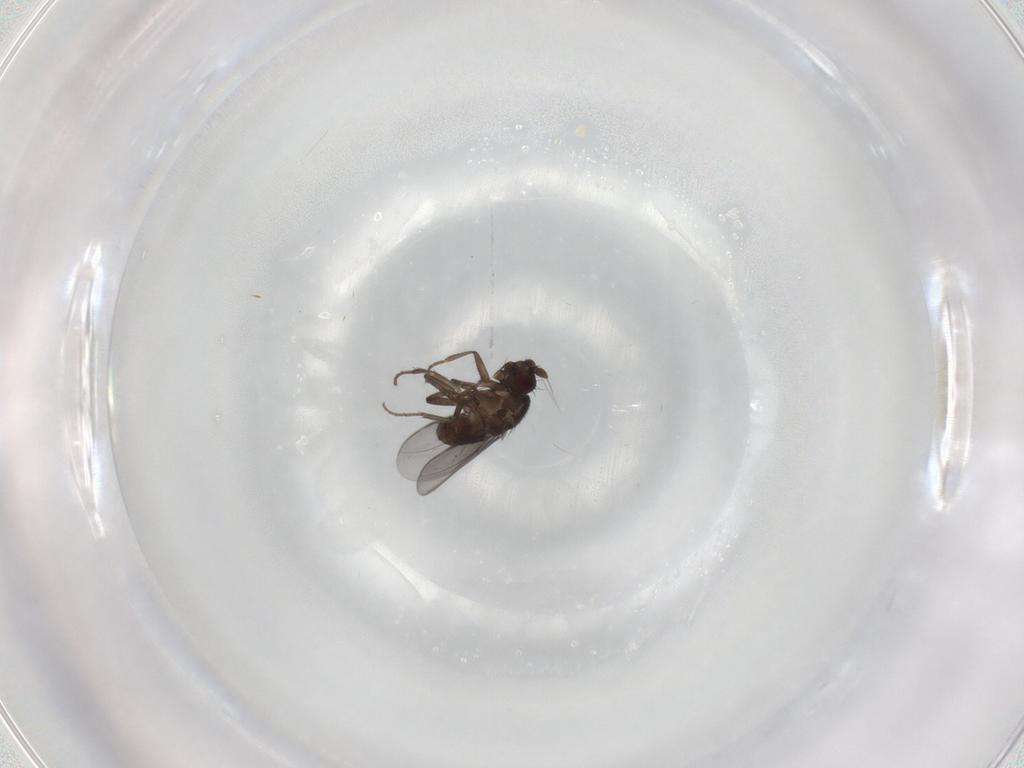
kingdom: Animalia
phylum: Arthropoda
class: Insecta
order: Diptera
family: Sphaeroceridae
